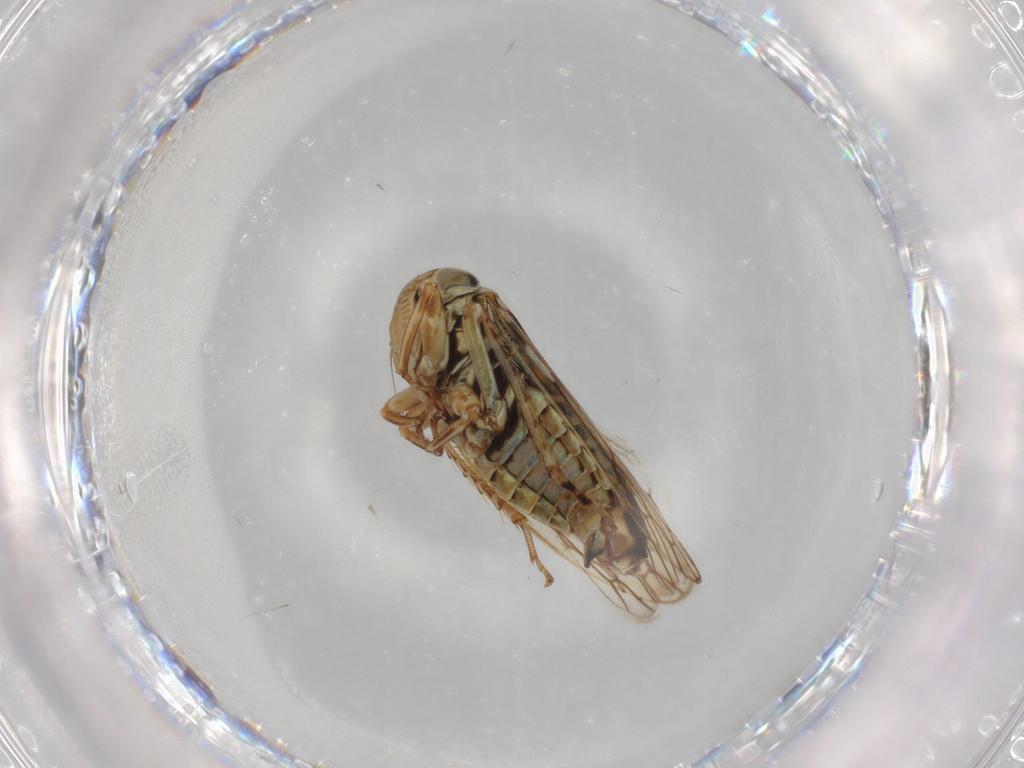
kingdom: Animalia
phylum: Arthropoda
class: Insecta
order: Hemiptera
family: Cicadellidae
